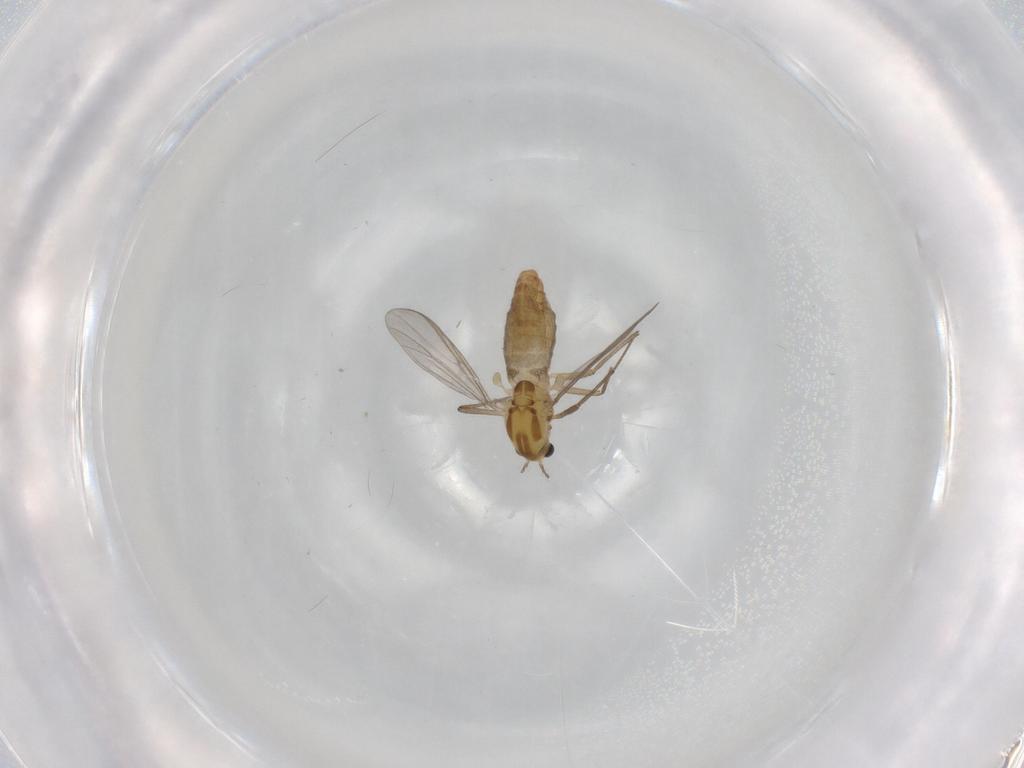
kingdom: Animalia
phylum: Arthropoda
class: Insecta
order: Diptera
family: Chironomidae
